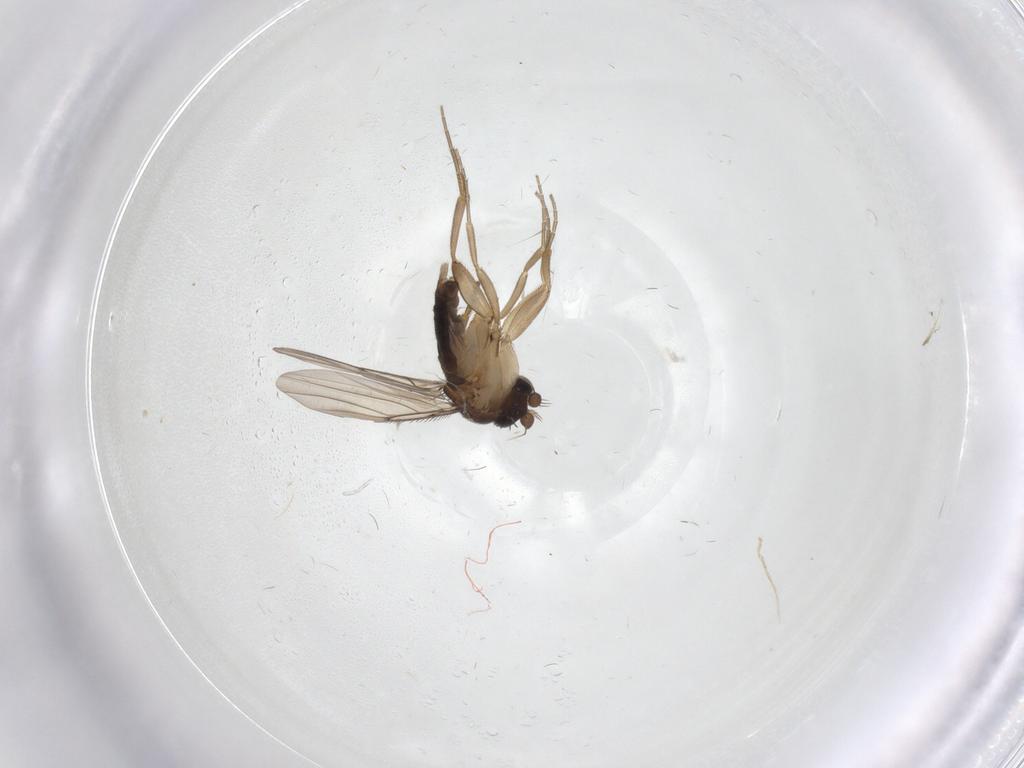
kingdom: Animalia
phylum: Arthropoda
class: Insecta
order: Diptera
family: Cecidomyiidae
